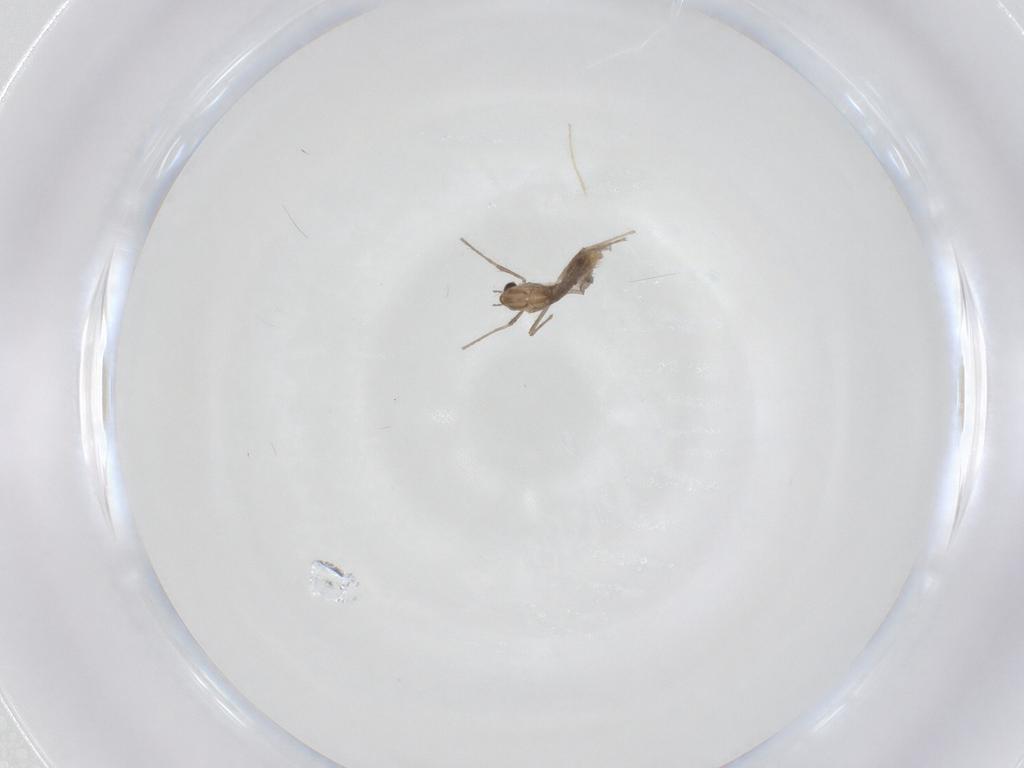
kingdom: Animalia
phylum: Arthropoda
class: Insecta
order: Diptera
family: Chironomidae
